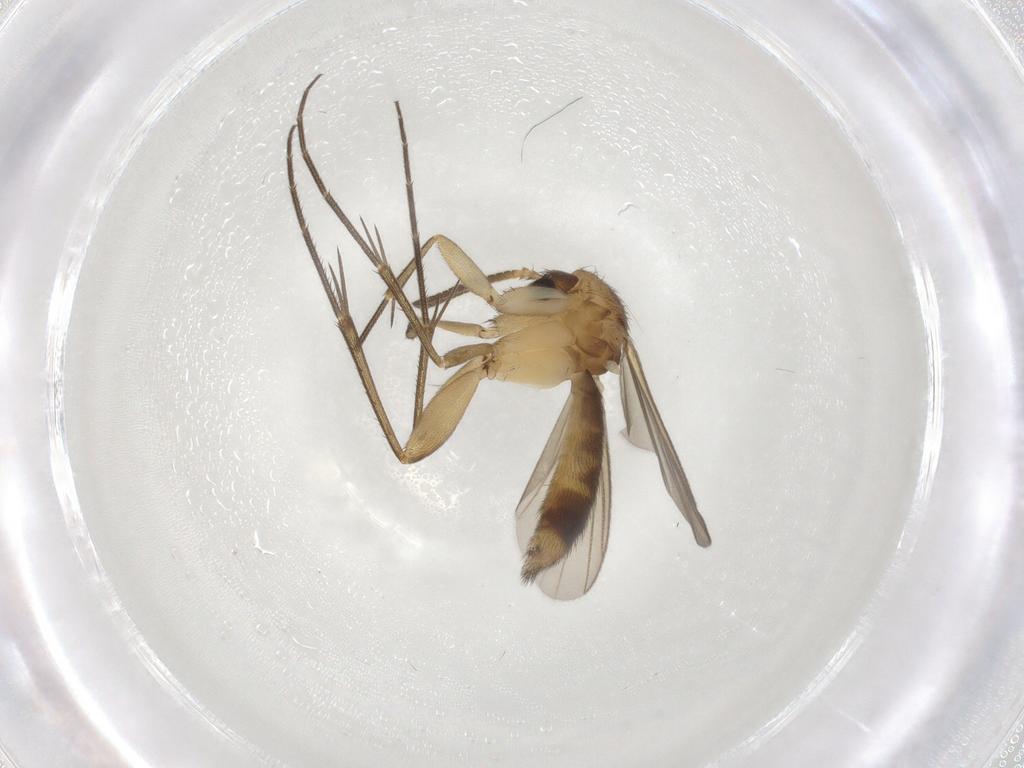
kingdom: Animalia
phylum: Arthropoda
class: Insecta
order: Diptera
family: Mycetophilidae
